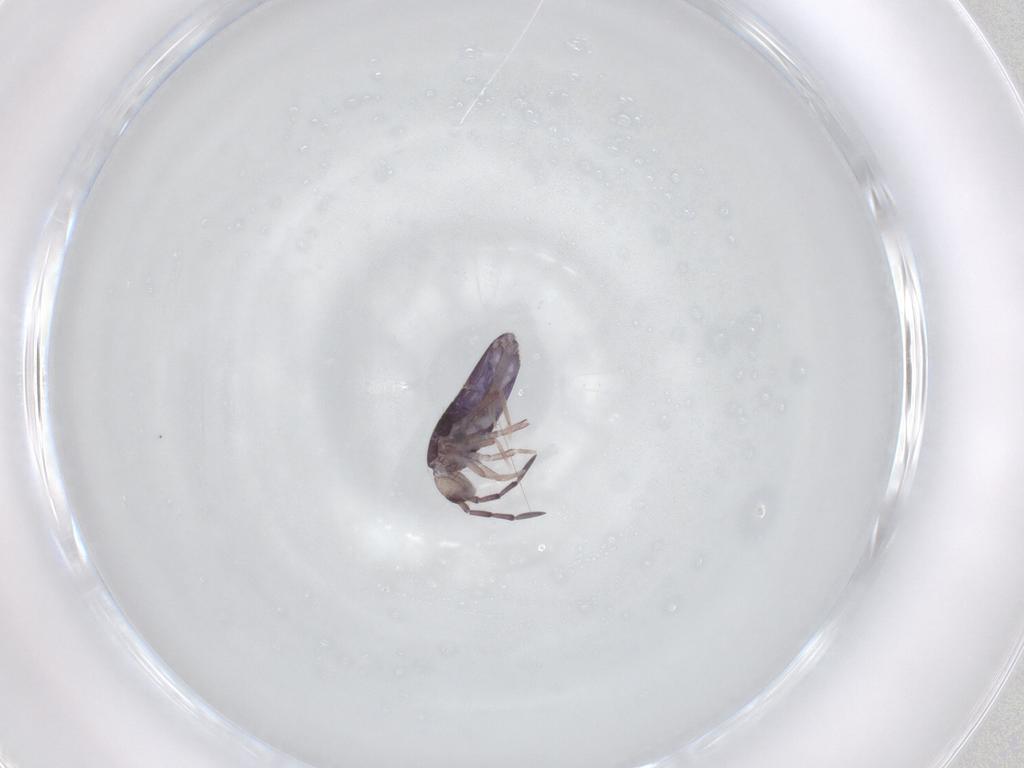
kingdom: Animalia
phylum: Arthropoda
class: Collembola
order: Entomobryomorpha
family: Entomobryidae
